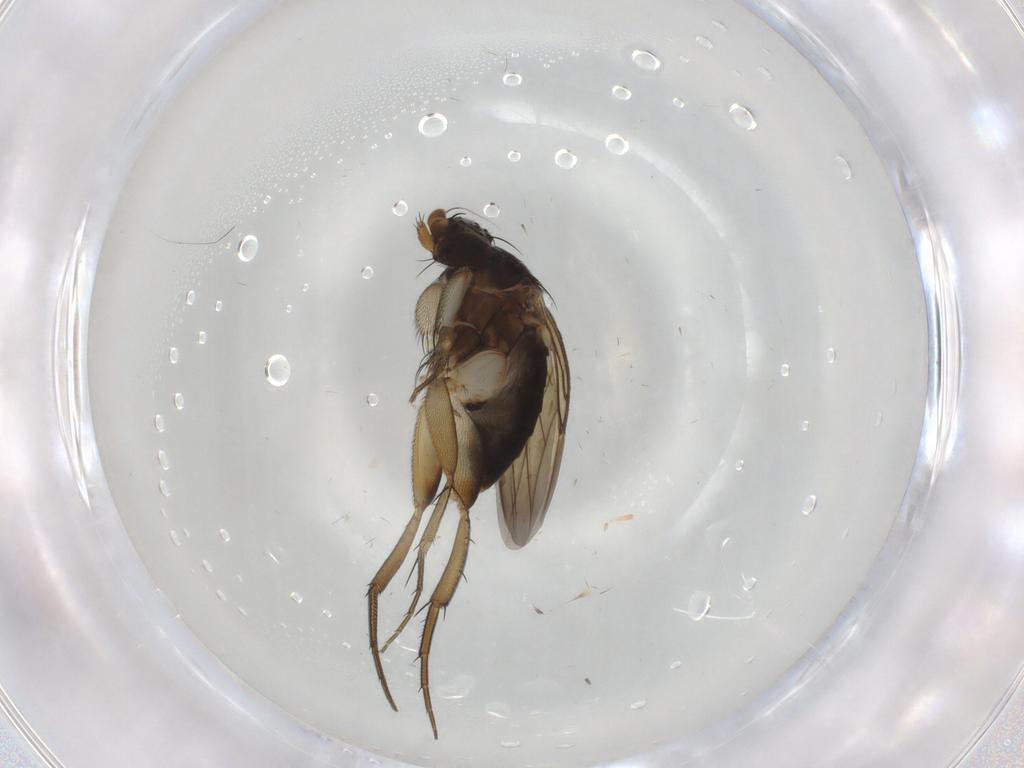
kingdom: Animalia
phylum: Arthropoda
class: Insecta
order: Diptera
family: Phoridae
